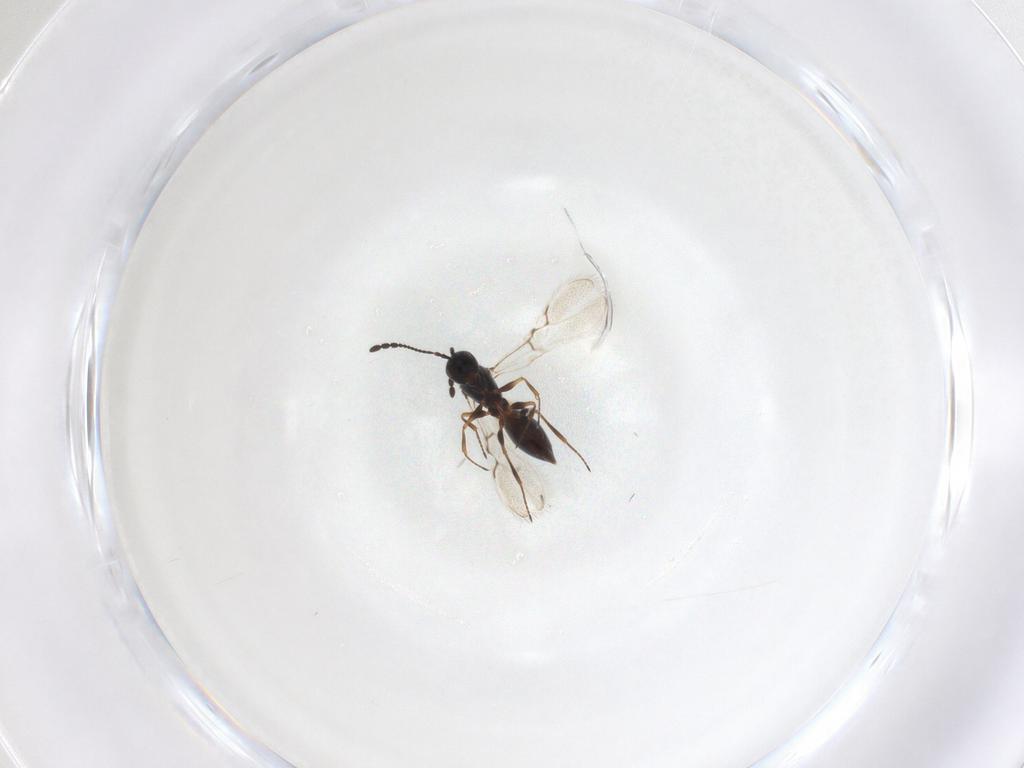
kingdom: Animalia
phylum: Arthropoda
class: Insecta
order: Hymenoptera
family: Figitidae
